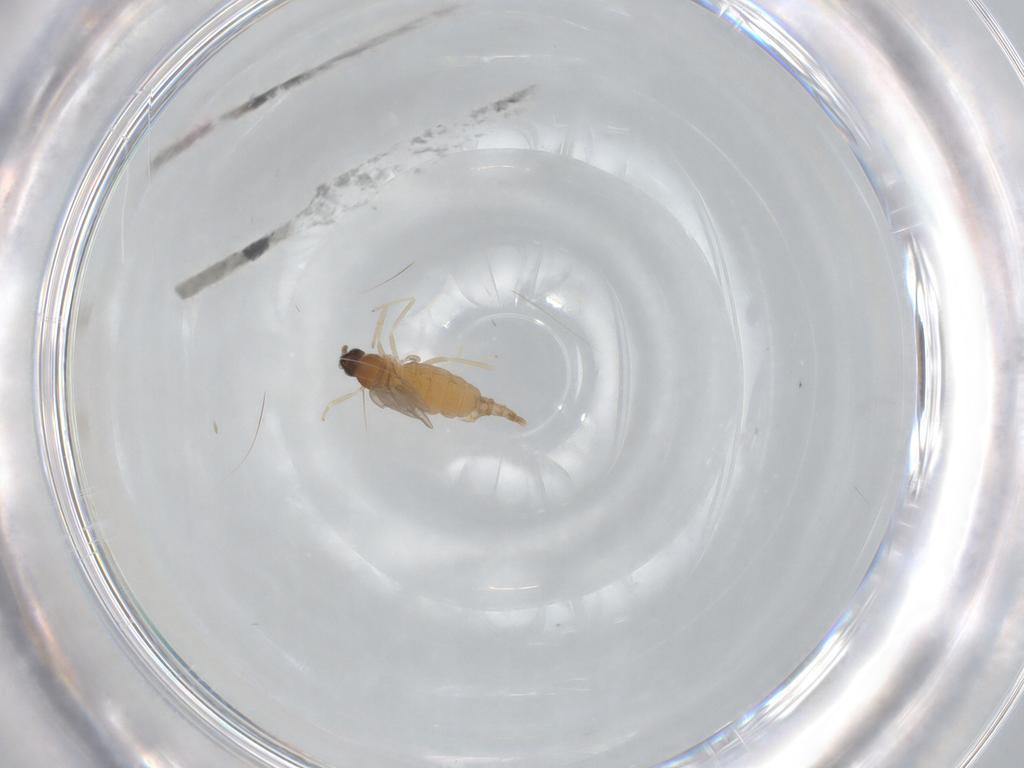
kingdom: Animalia
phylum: Arthropoda
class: Insecta
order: Diptera
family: Cecidomyiidae
